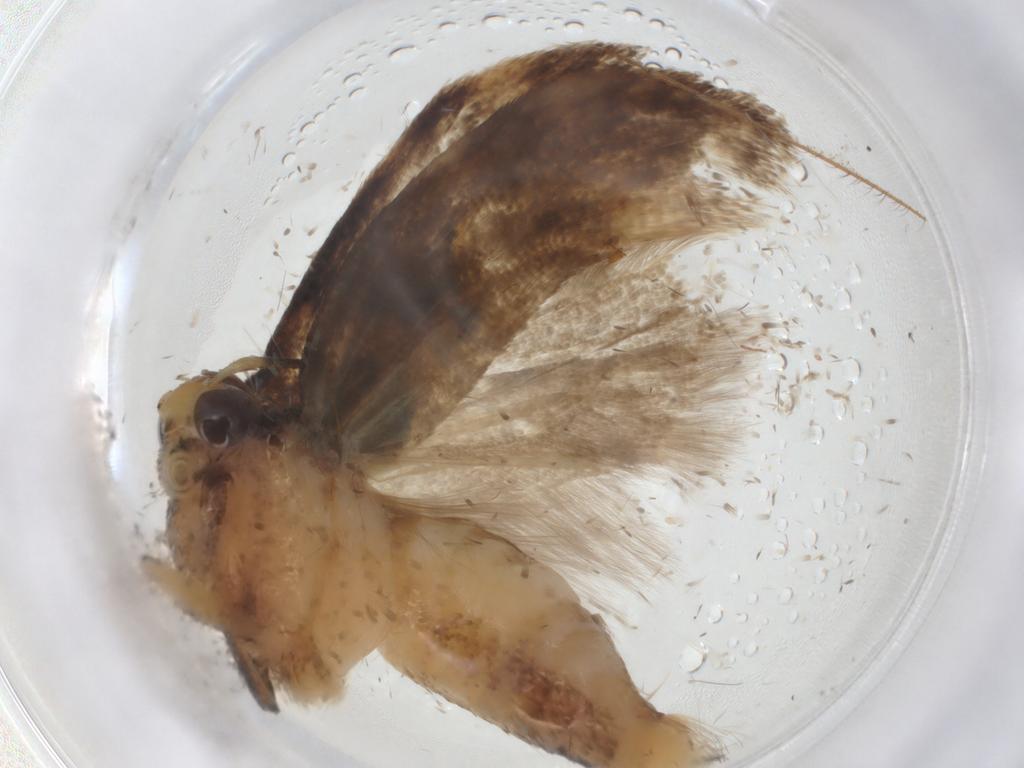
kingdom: Animalia
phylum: Arthropoda
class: Insecta
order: Lepidoptera
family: Gelechiidae
